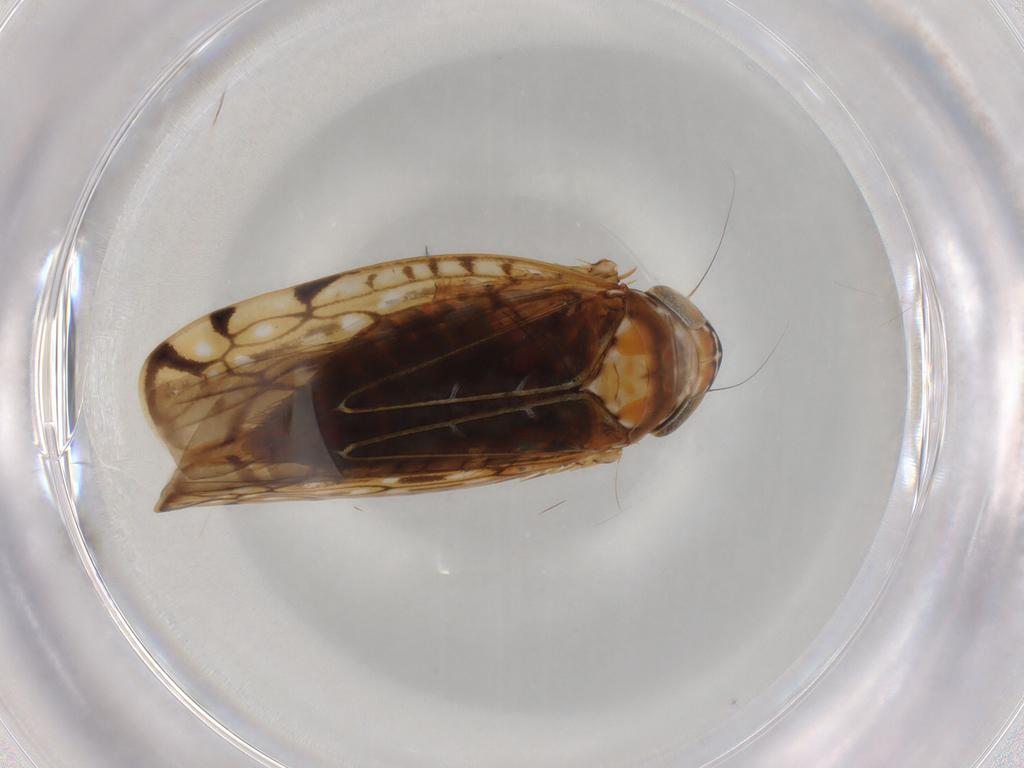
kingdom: Animalia
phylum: Arthropoda
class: Insecta
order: Hemiptera
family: Cicadellidae
